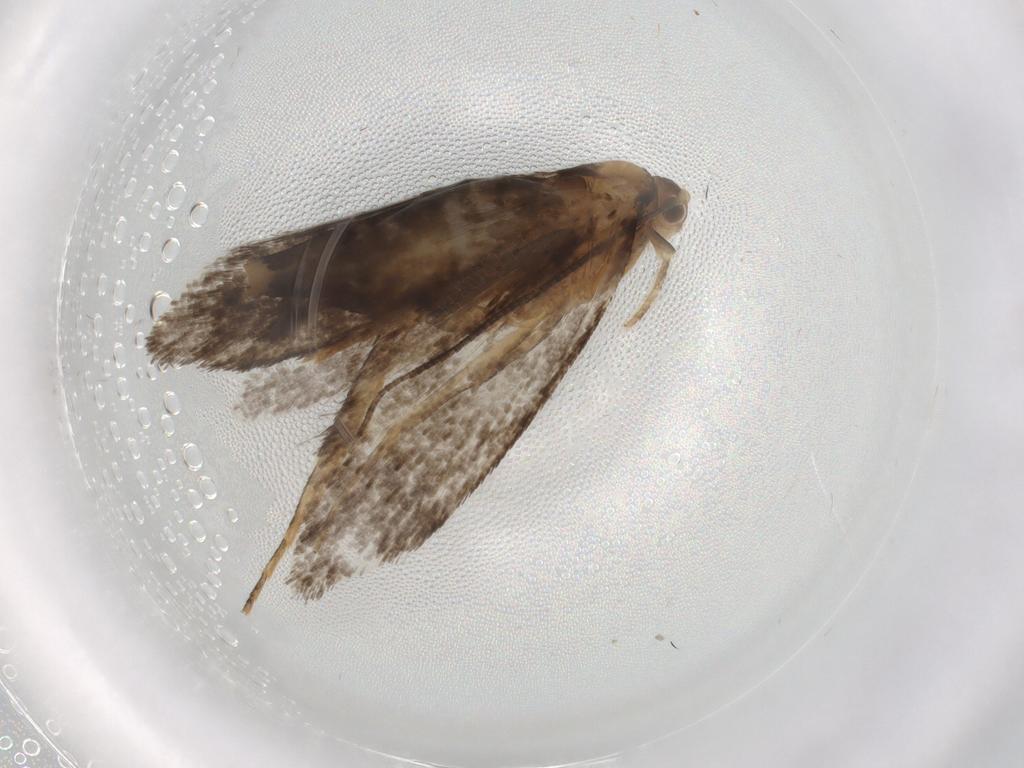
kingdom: Animalia
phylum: Arthropoda
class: Insecta
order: Lepidoptera
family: Tineidae
